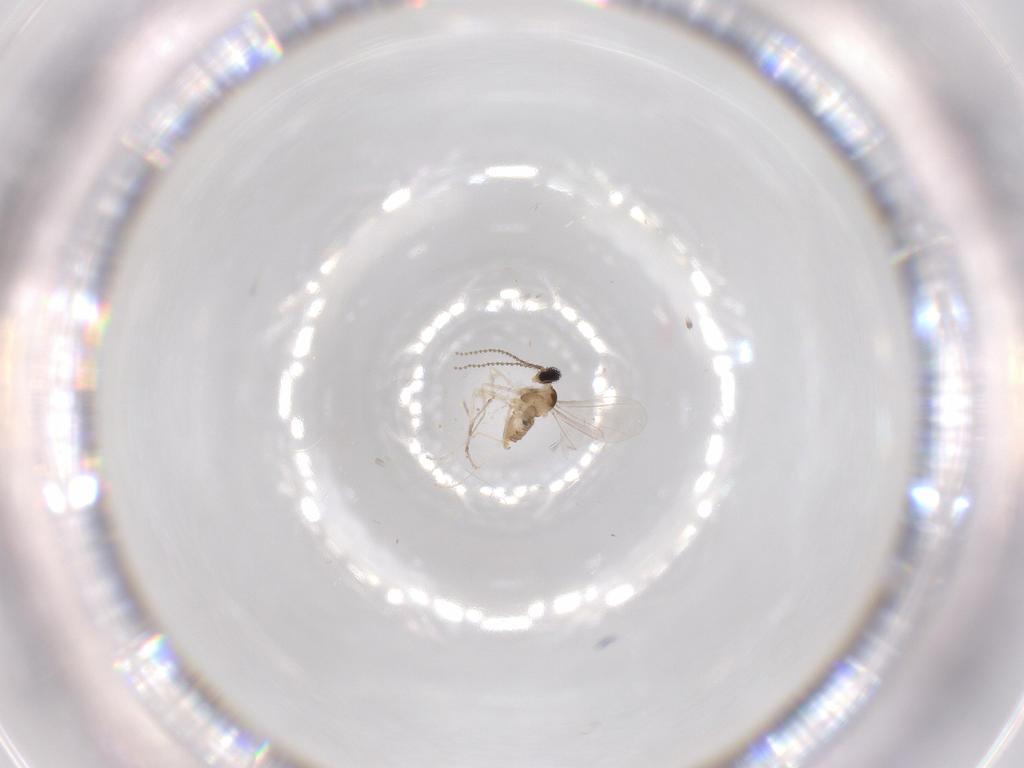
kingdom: Animalia
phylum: Arthropoda
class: Insecta
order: Diptera
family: Cecidomyiidae
